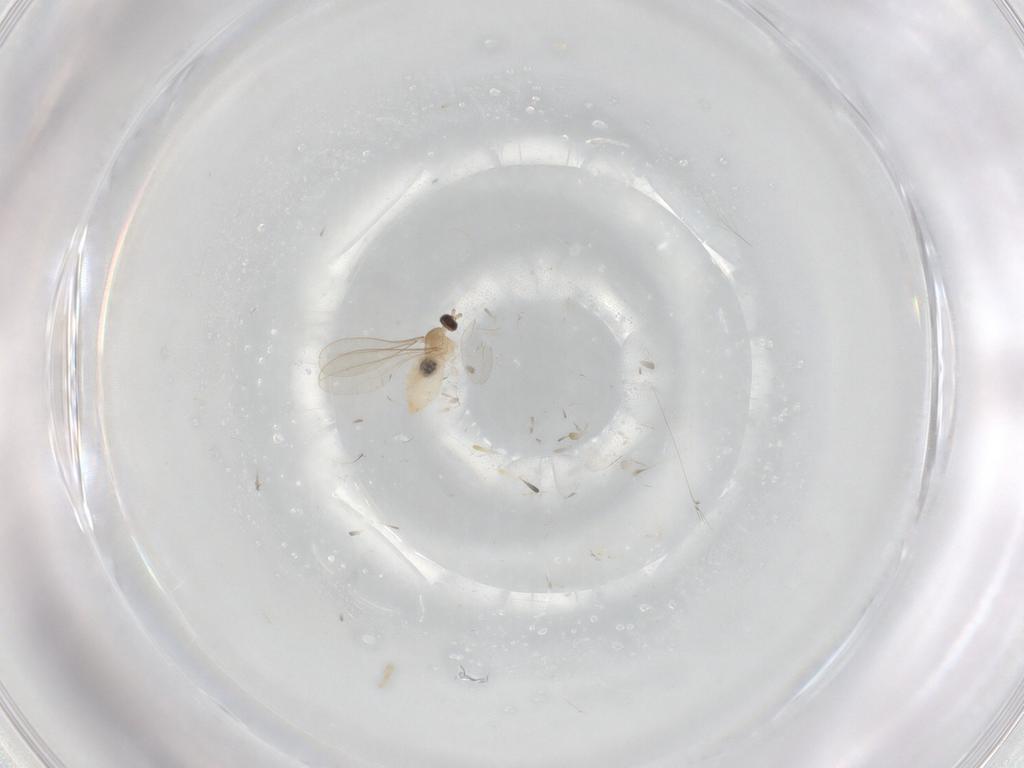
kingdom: Animalia
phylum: Arthropoda
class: Insecta
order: Diptera
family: Cecidomyiidae
